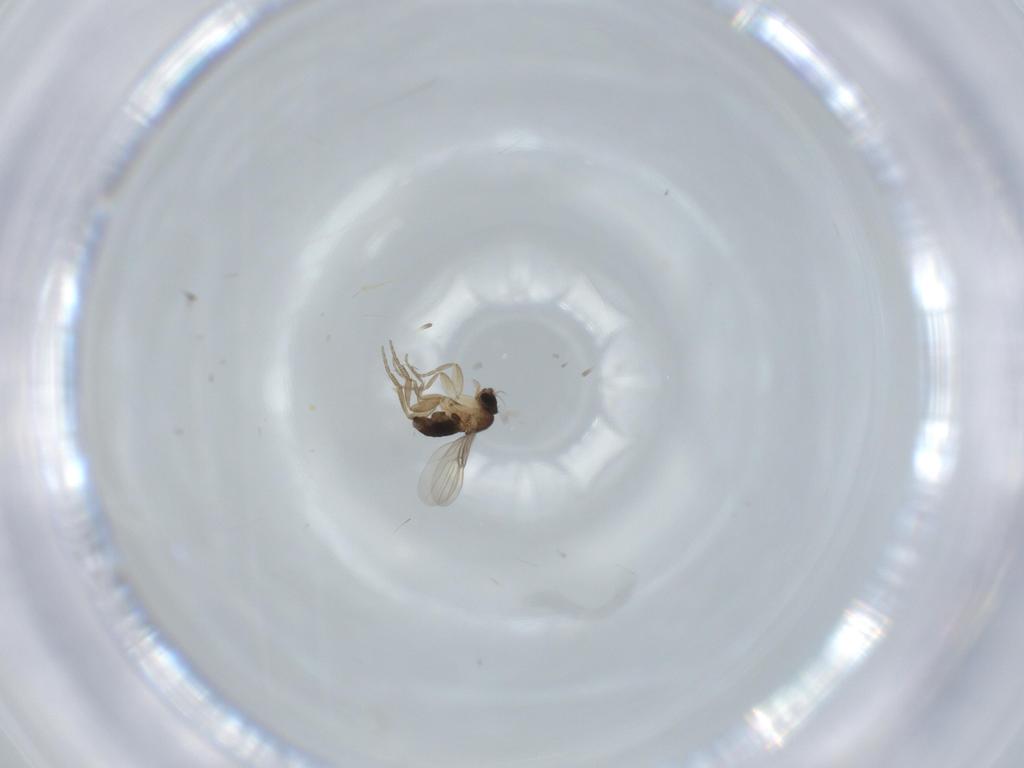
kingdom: Animalia
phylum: Arthropoda
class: Insecta
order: Diptera
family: Phoridae
